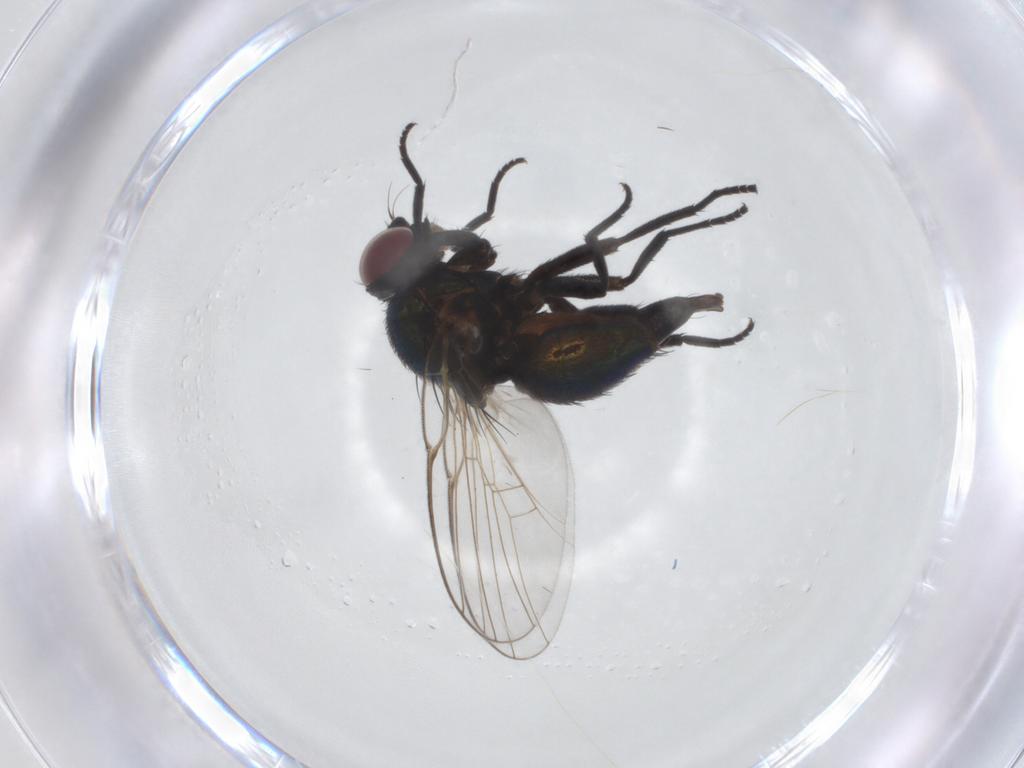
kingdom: Animalia
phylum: Arthropoda
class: Insecta
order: Diptera
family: Agromyzidae
